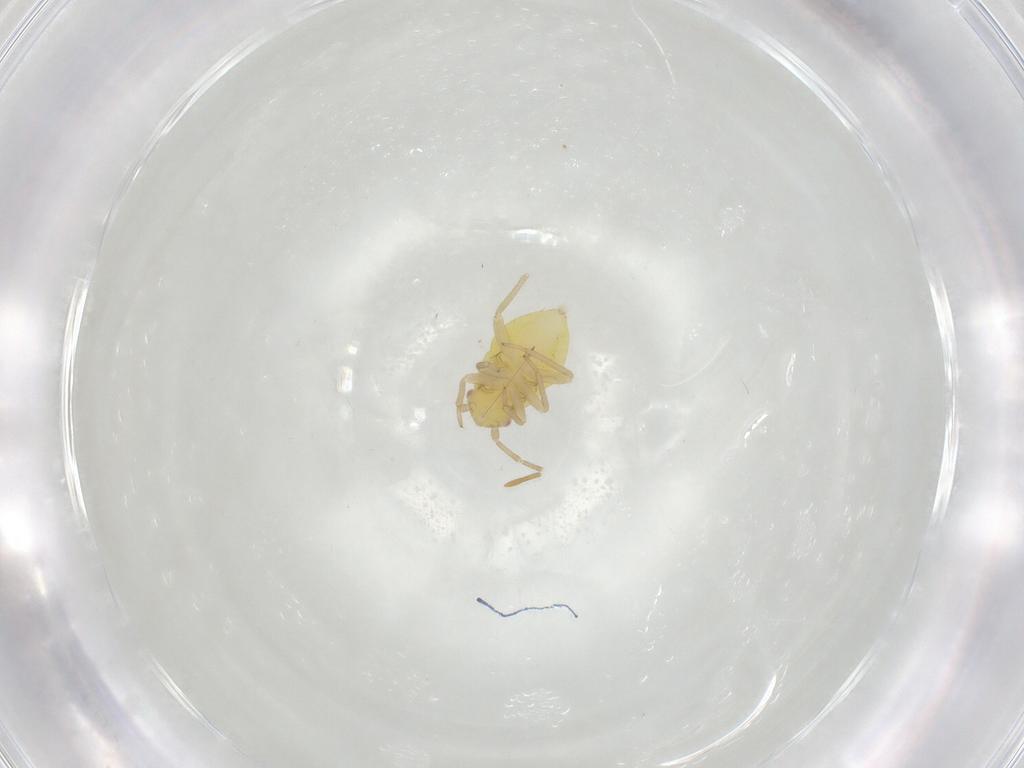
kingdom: Animalia
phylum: Arthropoda
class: Insecta
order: Hemiptera
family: Miridae
